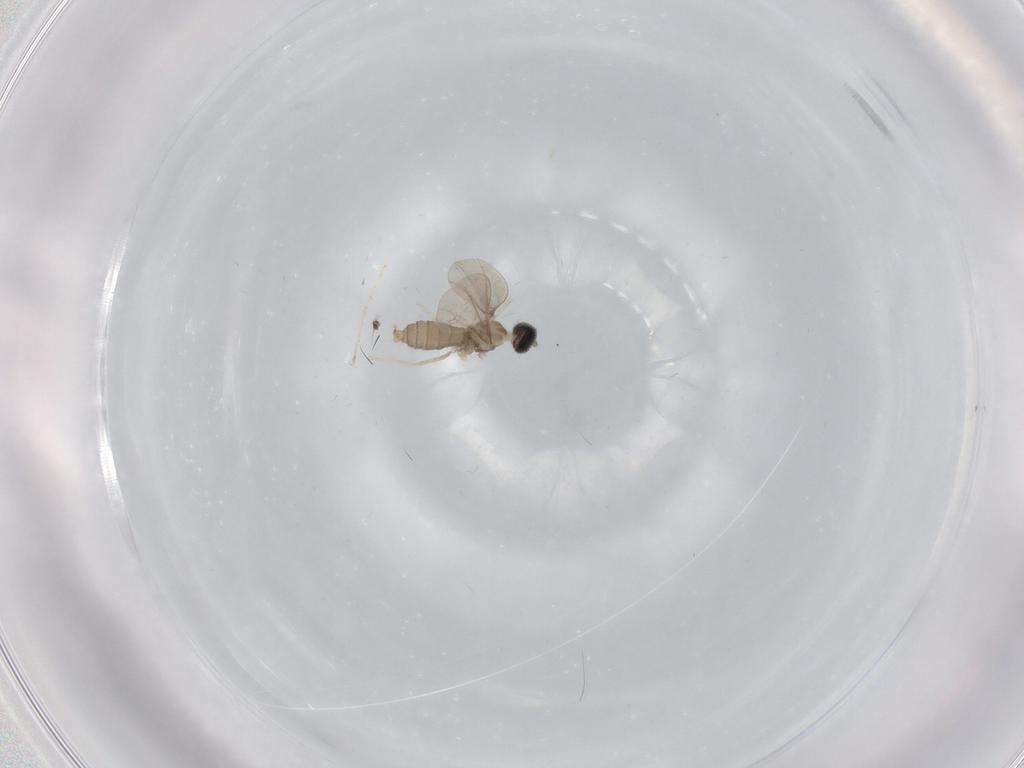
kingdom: Animalia
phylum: Arthropoda
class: Insecta
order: Diptera
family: Cecidomyiidae
